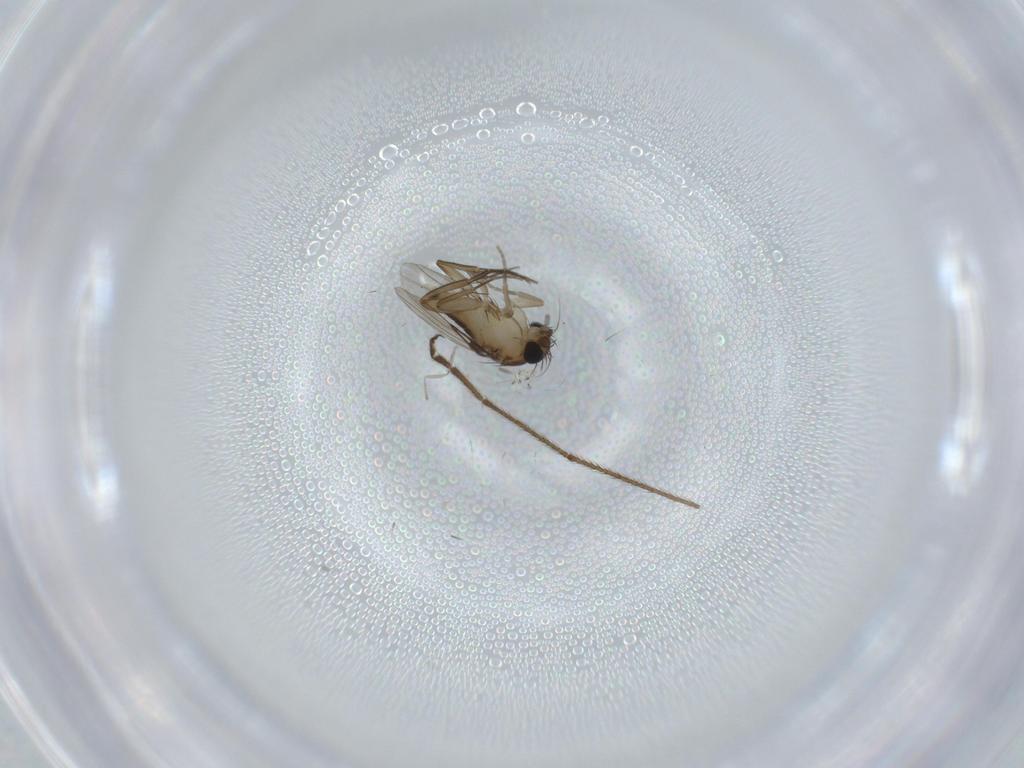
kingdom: Animalia
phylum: Arthropoda
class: Insecta
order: Diptera
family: Phoridae
